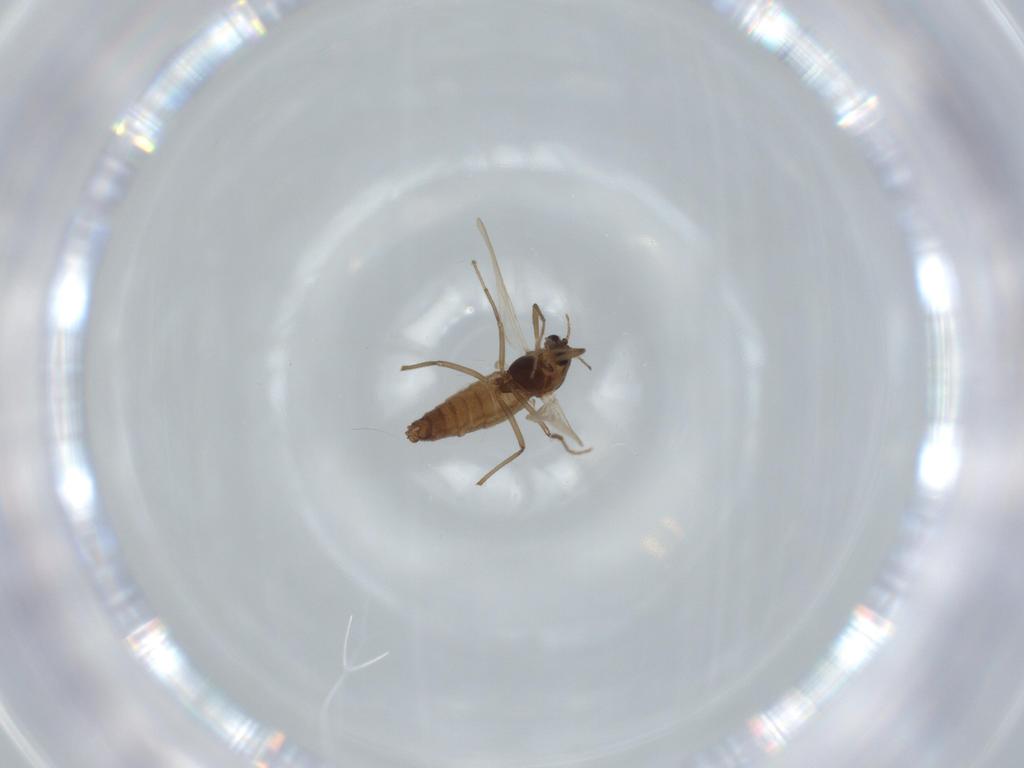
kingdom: Animalia
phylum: Arthropoda
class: Insecta
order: Diptera
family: Chironomidae
